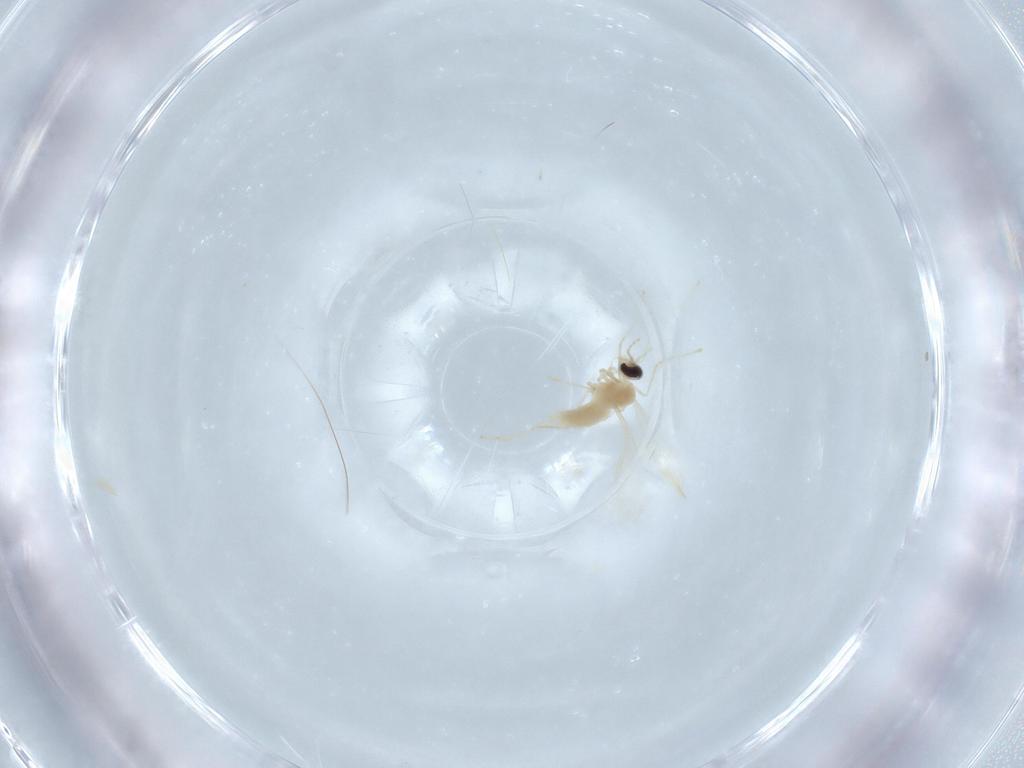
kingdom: Animalia
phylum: Arthropoda
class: Insecta
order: Diptera
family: Cecidomyiidae
